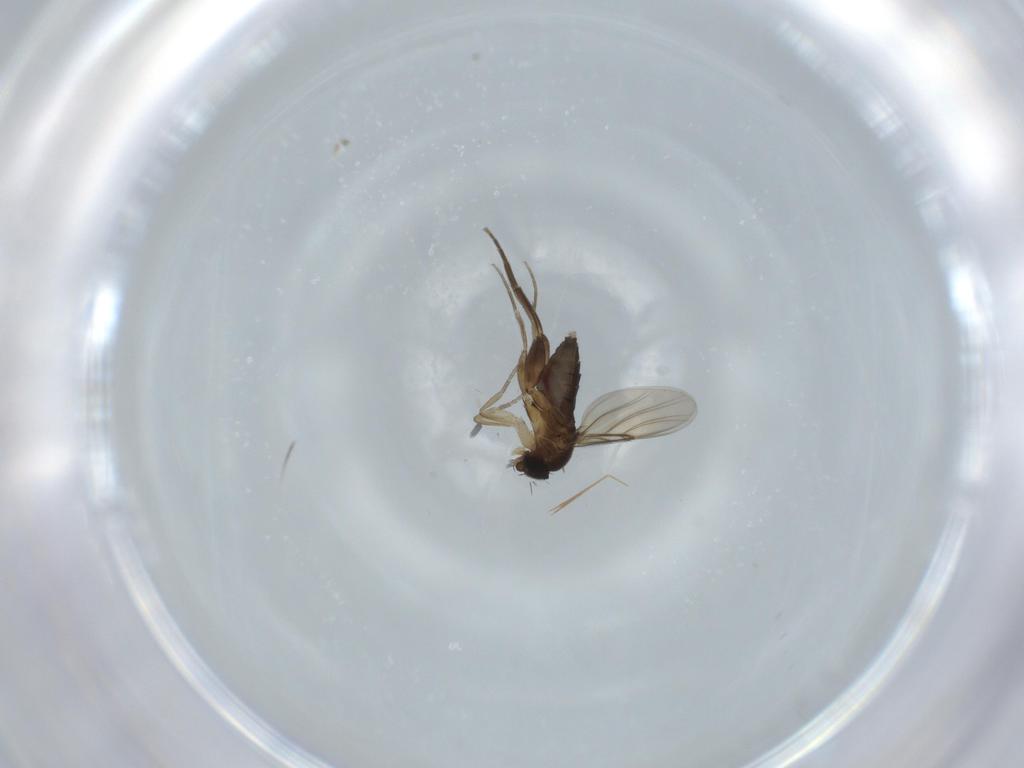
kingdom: Animalia
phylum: Arthropoda
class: Insecta
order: Diptera
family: Phoridae
